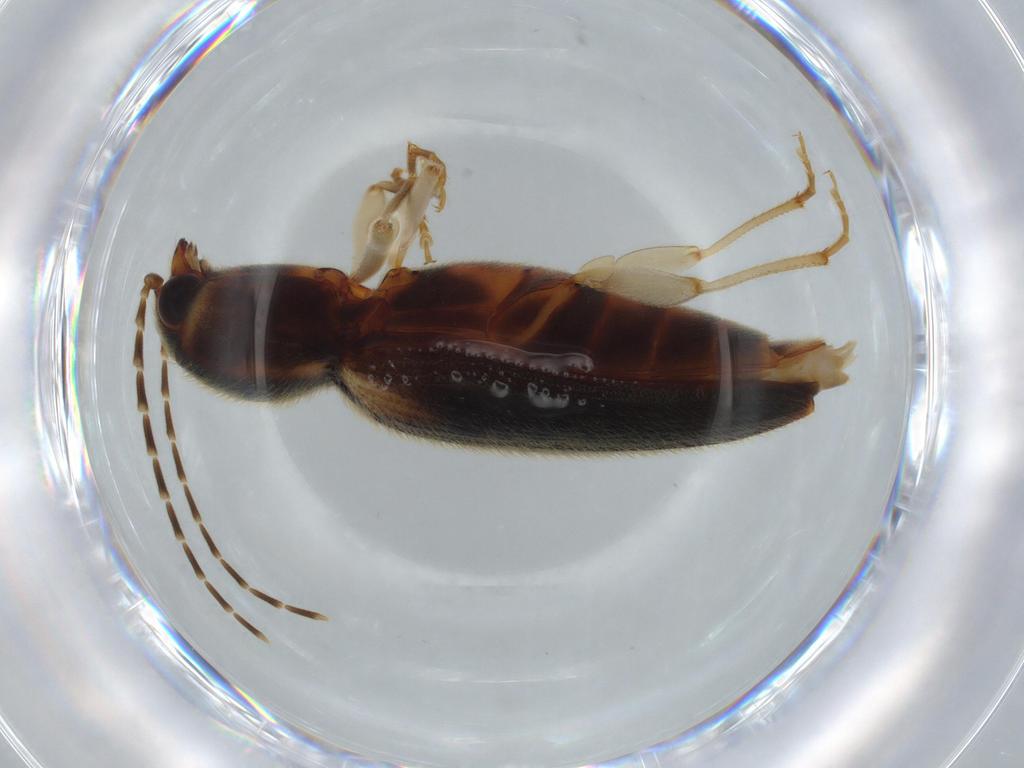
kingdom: Animalia
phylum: Arthropoda
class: Insecta
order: Coleoptera
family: Elateridae
